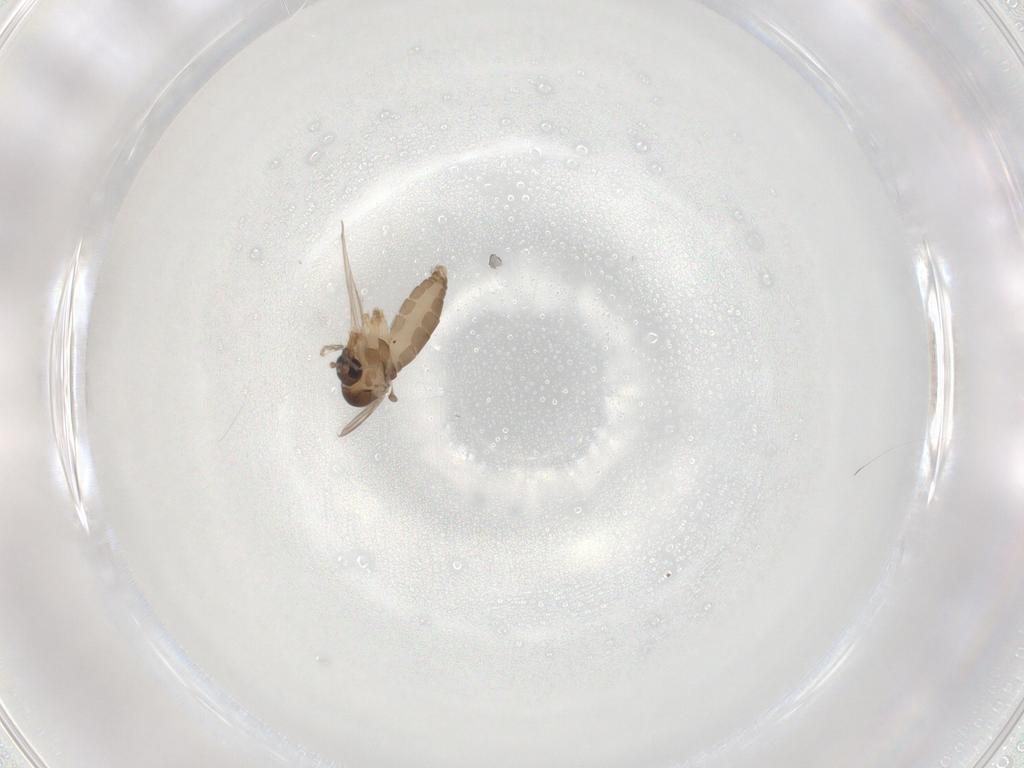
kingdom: Animalia
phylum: Arthropoda
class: Insecta
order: Diptera
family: Psychodidae
